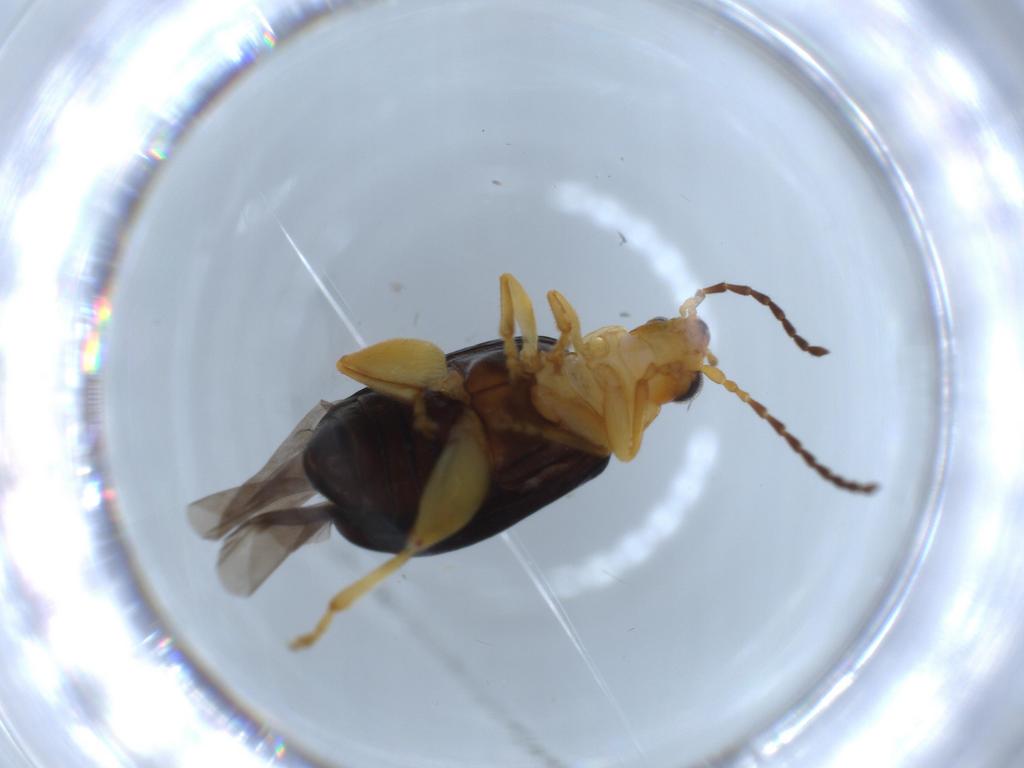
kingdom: Animalia
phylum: Arthropoda
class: Insecta
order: Coleoptera
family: Chrysomelidae
